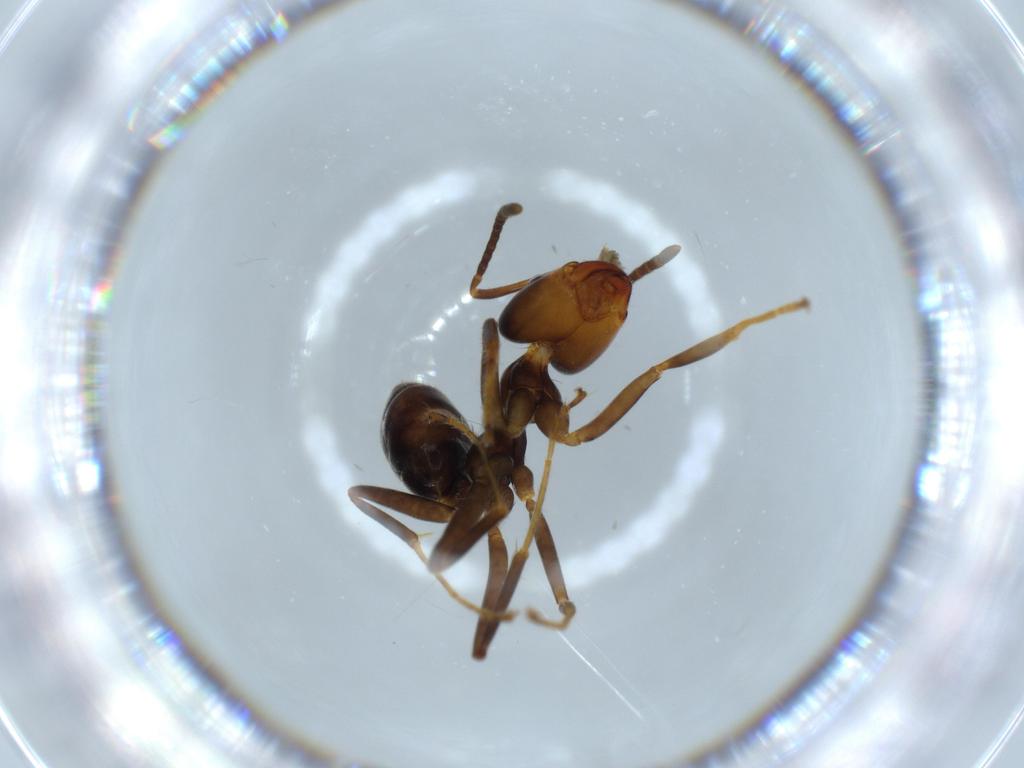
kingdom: Animalia
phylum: Arthropoda
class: Insecta
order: Hymenoptera
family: Formicidae
